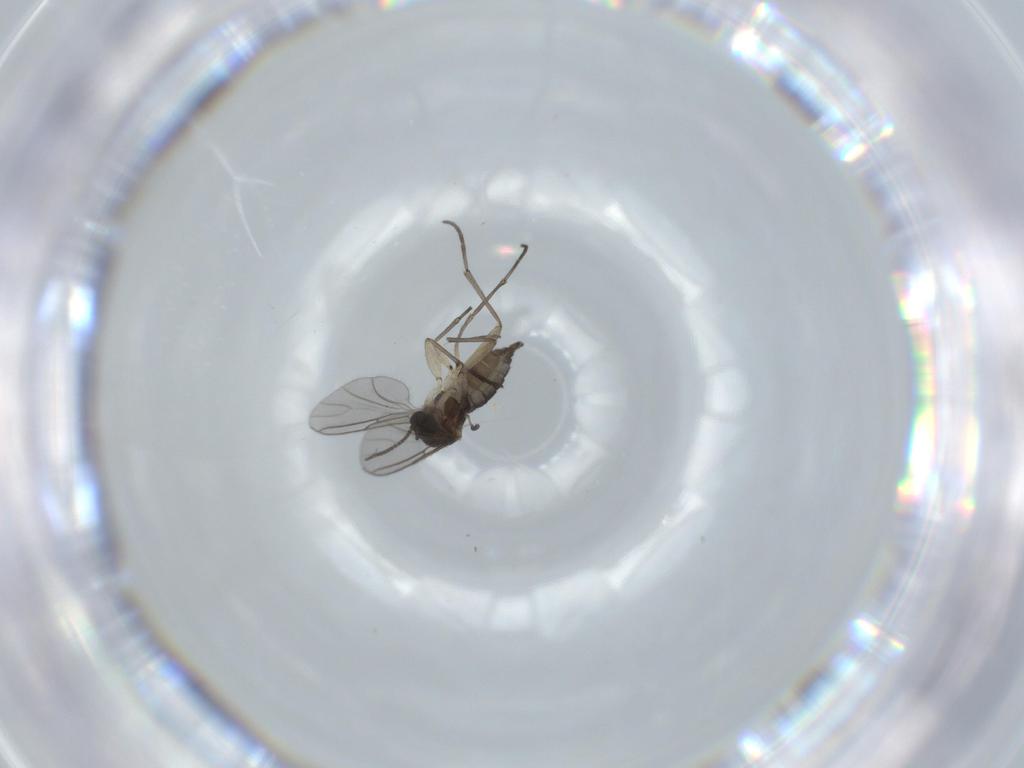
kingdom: Animalia
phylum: Arthropoda
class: Insecta
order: Diptera
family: Sciaridae
